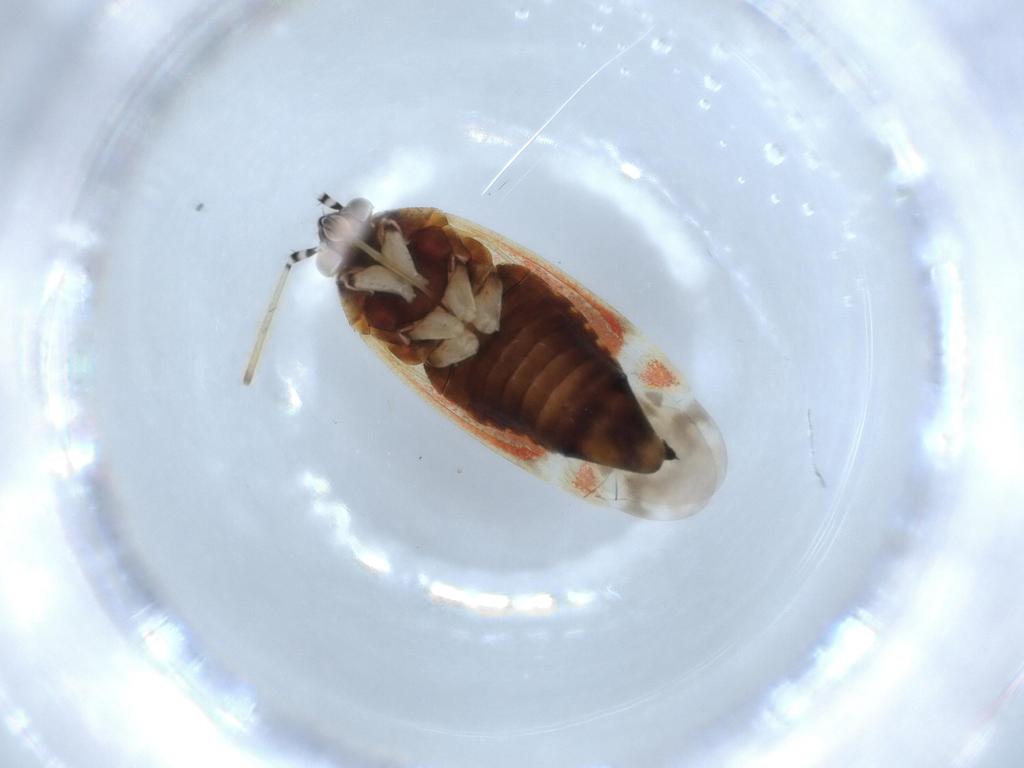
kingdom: Animalia
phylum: Arthropoda
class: Insecta
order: Hemiptera
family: Aphididae
